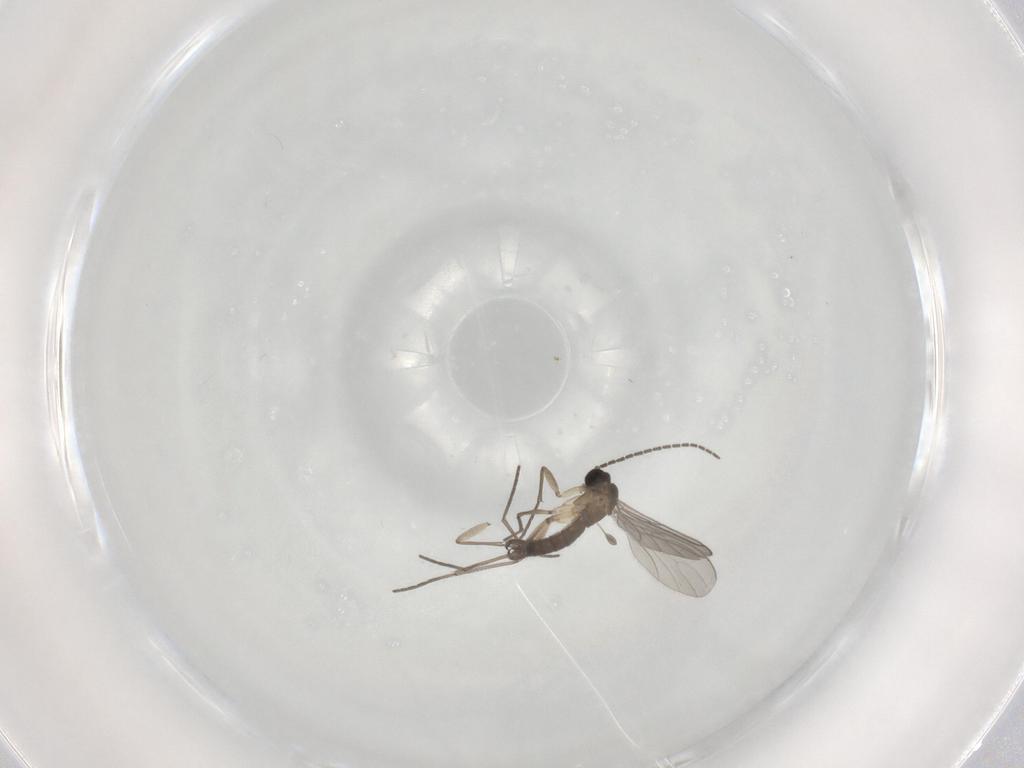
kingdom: Animalia
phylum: Arthropoda
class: Insecta
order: Diptera
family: Sciaridae
